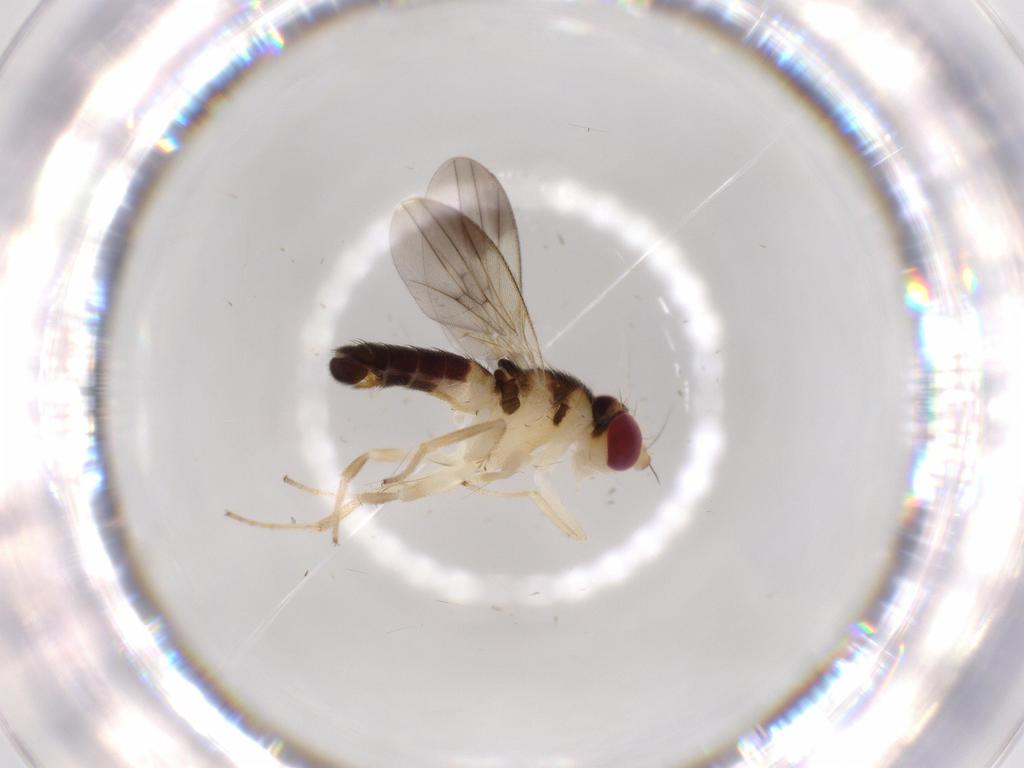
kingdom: Animalia
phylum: Arthropoda
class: Insecta
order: Diptera
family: Clusiidae
